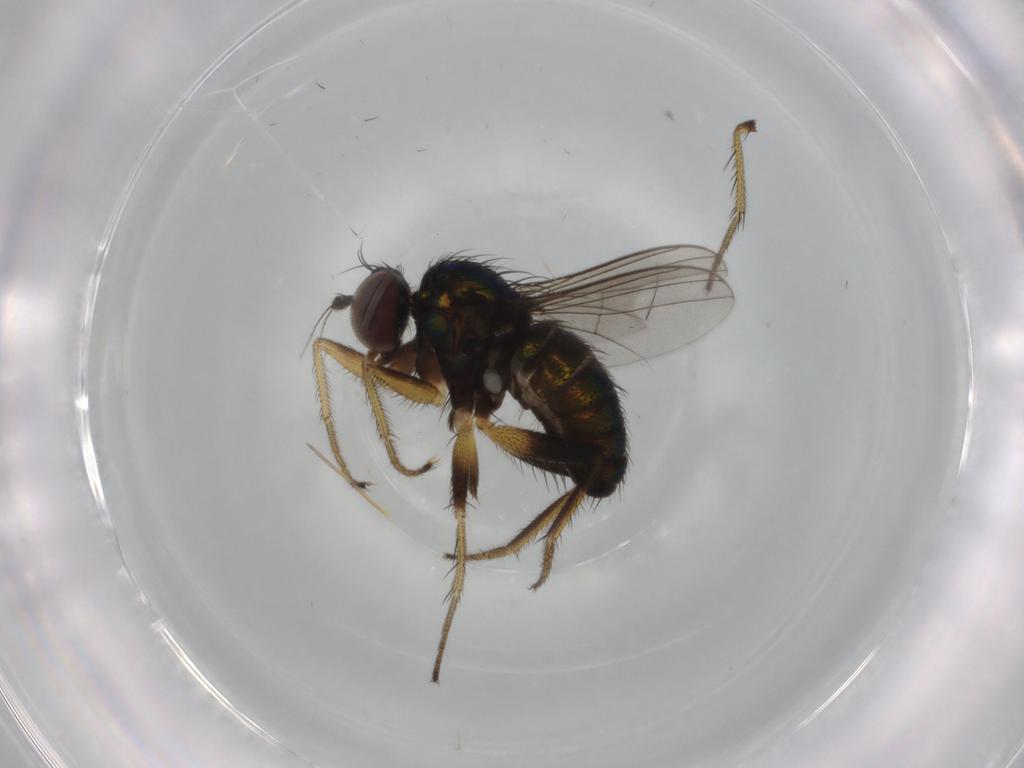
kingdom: Animalia
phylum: Arthropoda
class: Insecta
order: Diptera
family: Dolichopodidae
